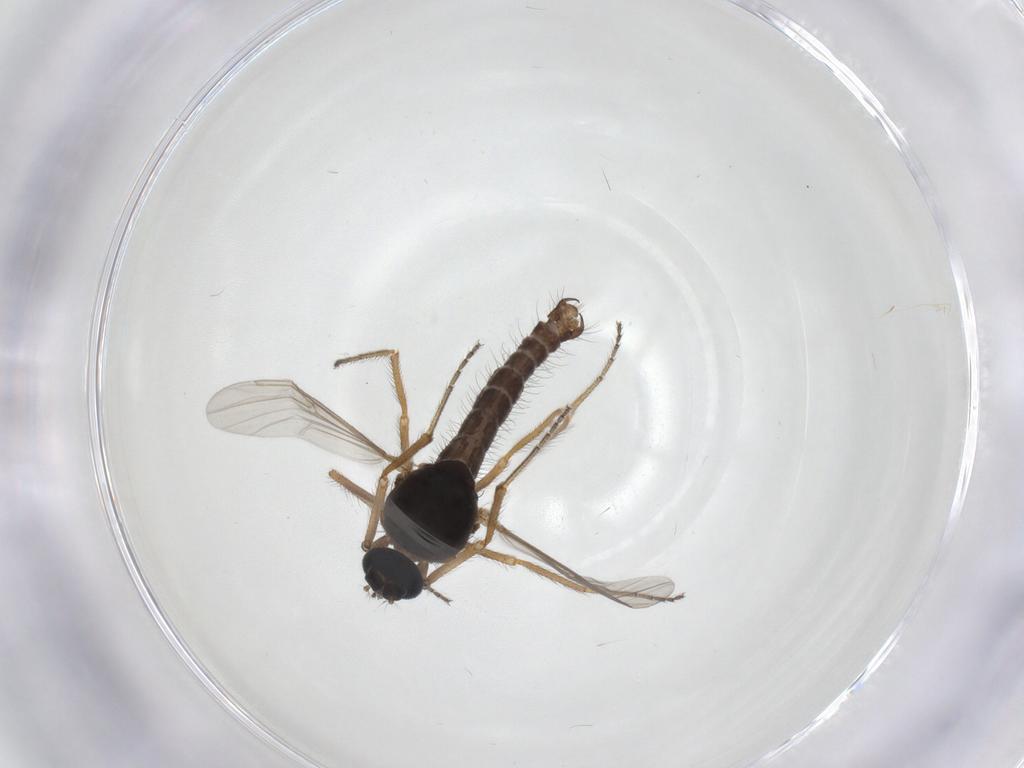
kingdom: Animalia
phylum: Arthropoda
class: Insecta
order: Diptera
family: Ceratopogonidae
